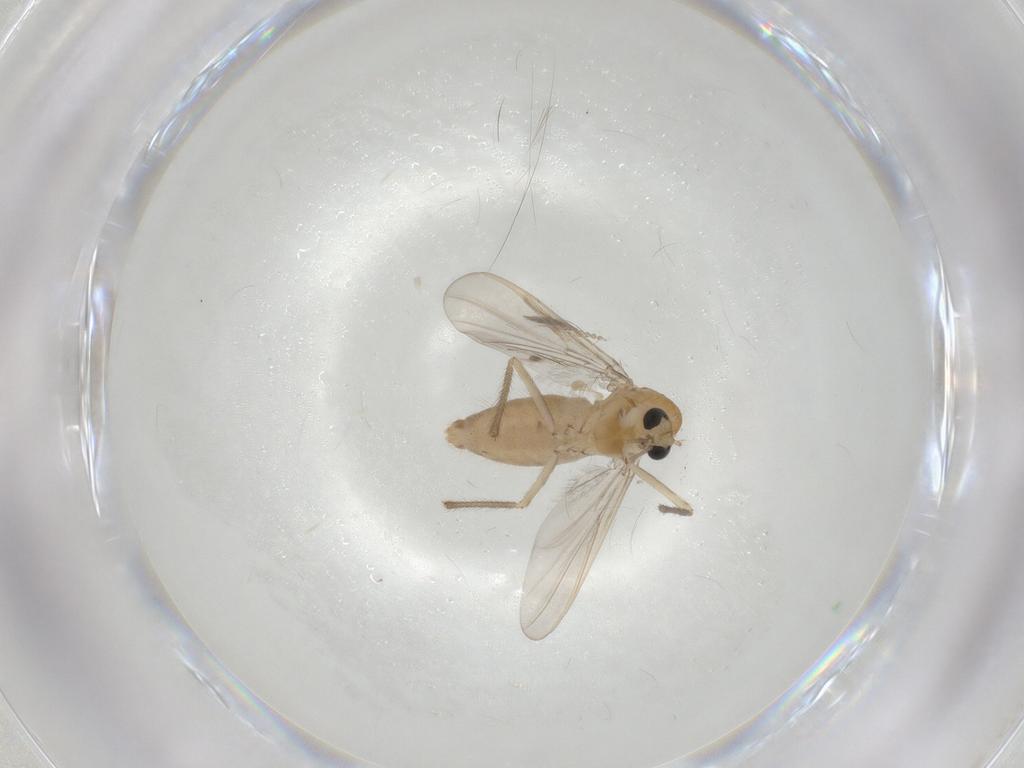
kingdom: Animalia
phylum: Arthropoda
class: Insecta
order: Diptera
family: Chironomidae
